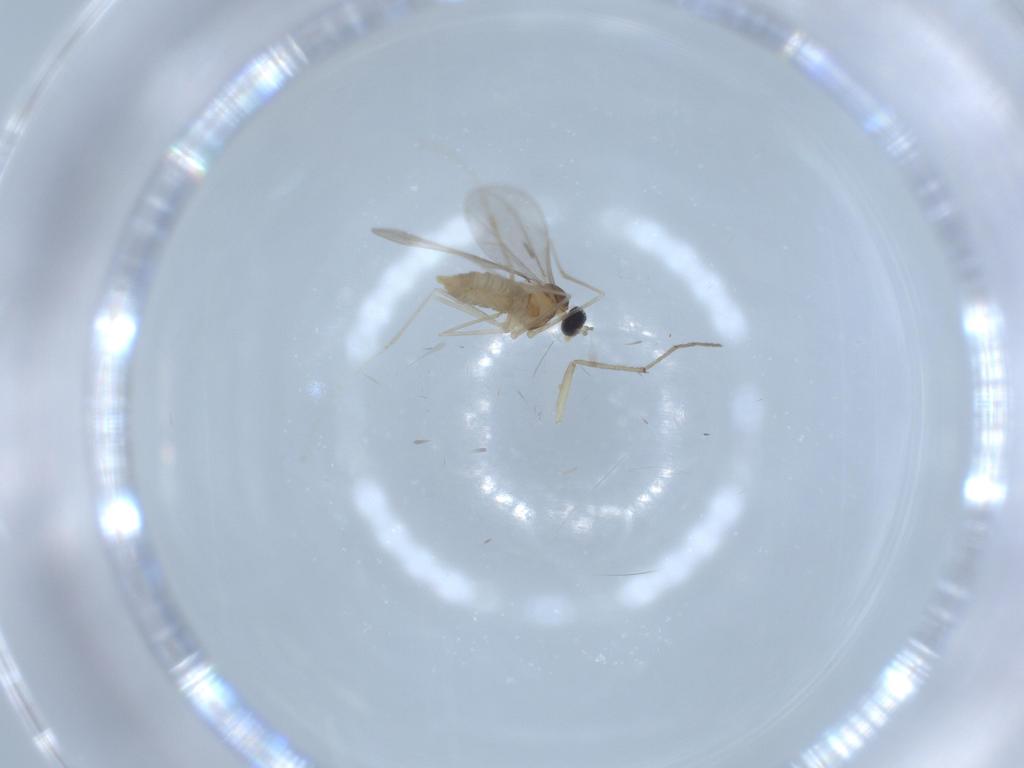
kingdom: Animalia
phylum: Arthropoda
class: Insecta
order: Diptera
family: Cecidomyiidae
